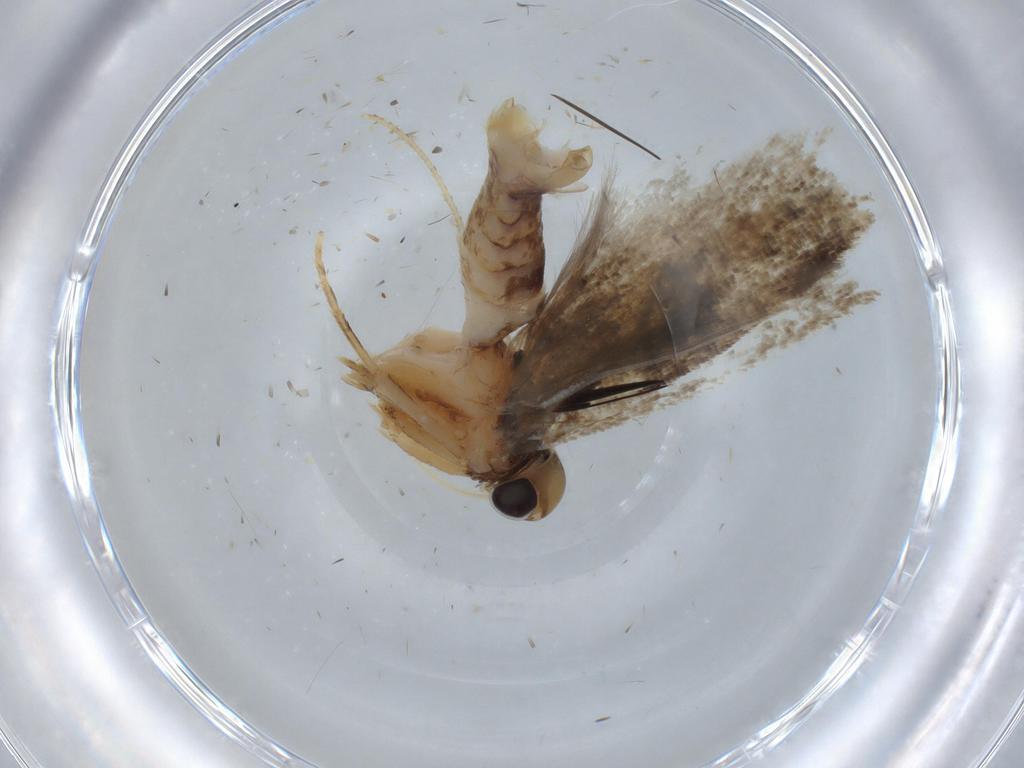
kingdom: Animalia
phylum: Arthropoda
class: Insecta
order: Lepidoptera
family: Gelechiidae
